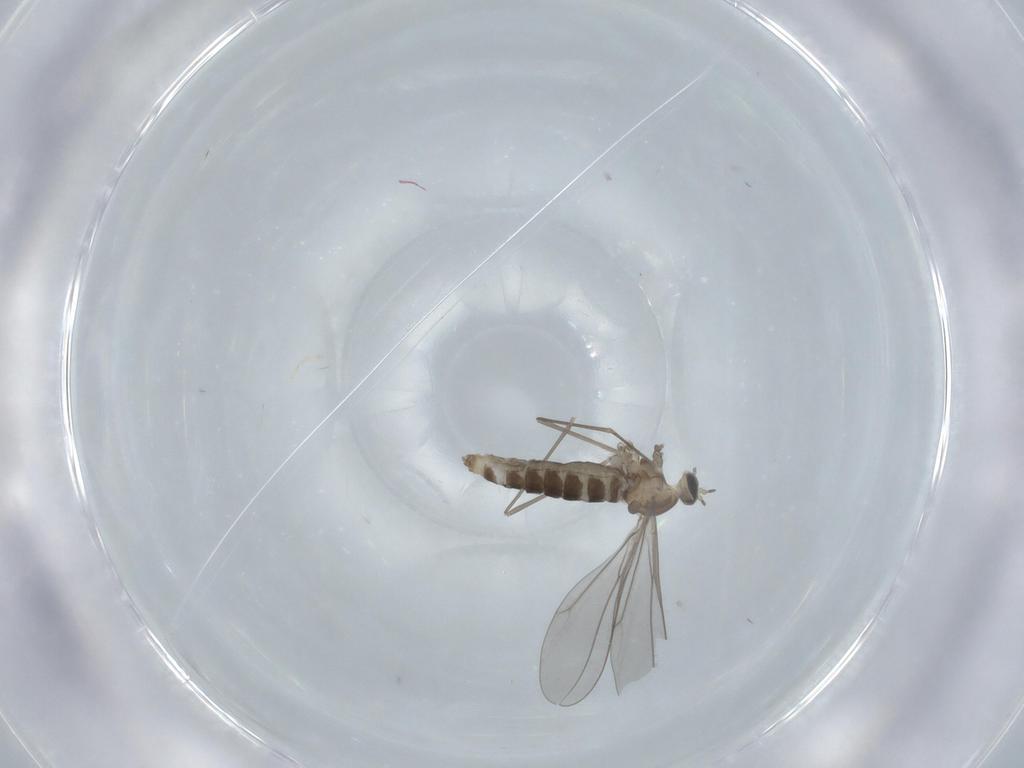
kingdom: Animalia
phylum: Arthropoda
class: Insecta
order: Diptera
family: Cecidomyiidae
